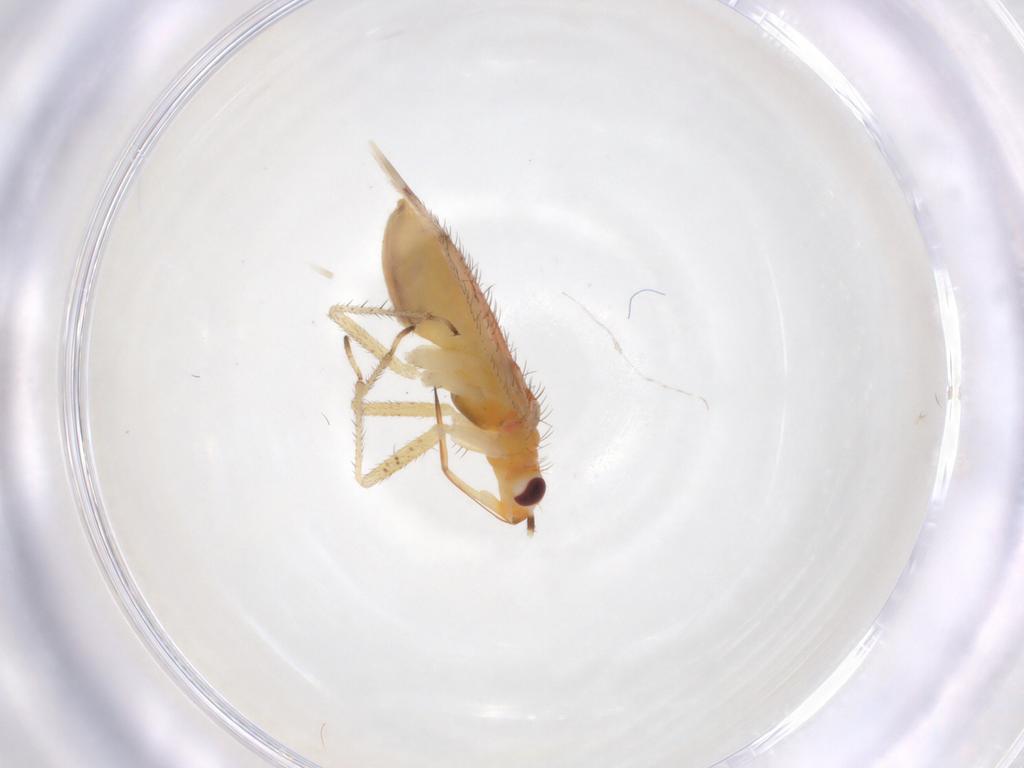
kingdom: Animalia
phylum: Arthropoda
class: Insecta
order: Hemiptera
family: Miridae
